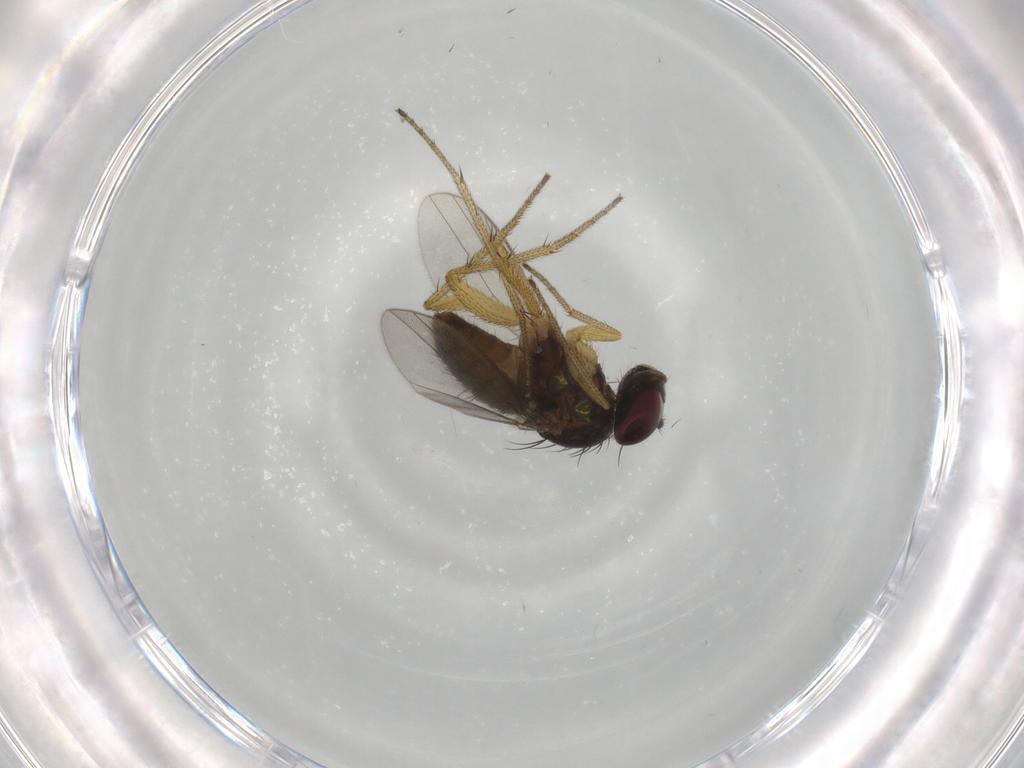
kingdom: Animalia
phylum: Arthropoda
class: Insecta
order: Diptera
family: Dolichopodidae
